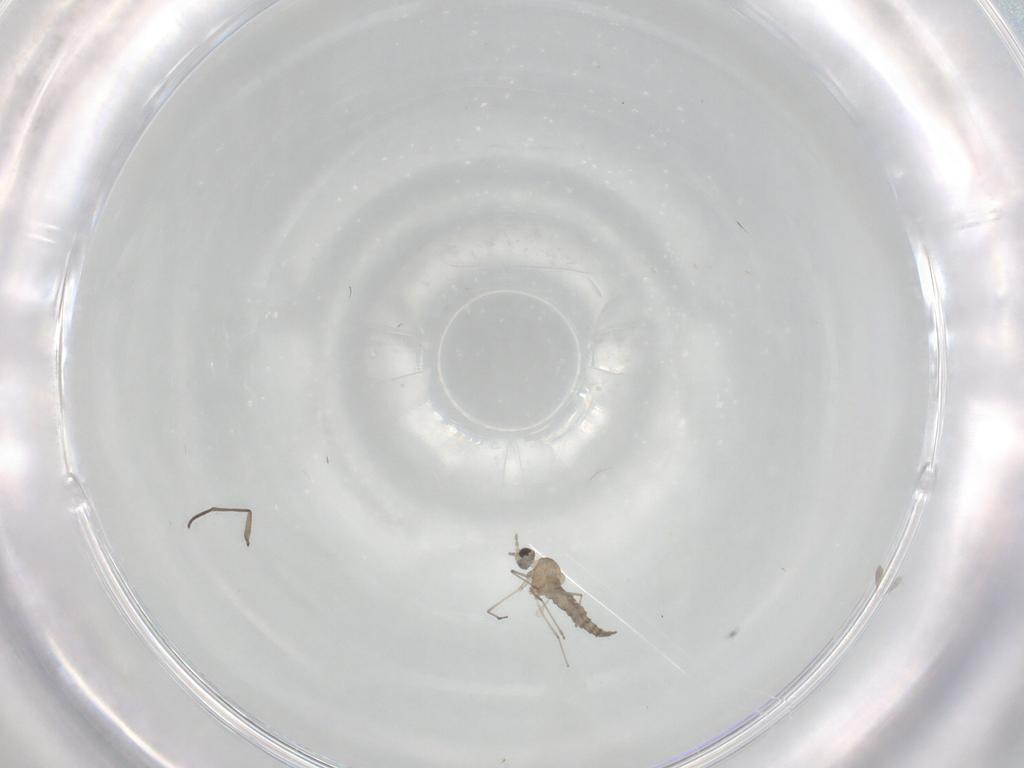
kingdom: Animalia
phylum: Arthropoda
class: Insecta
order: Diptera
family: Cecidomyiidae
